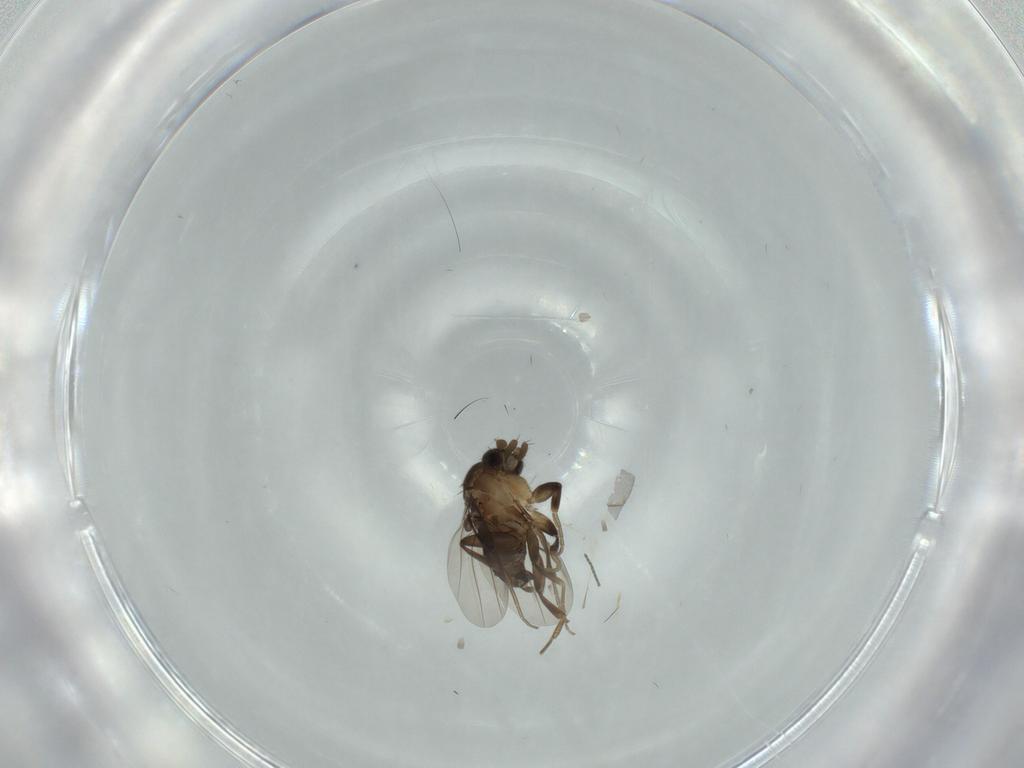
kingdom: Animalia
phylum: Arthropoda
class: Insecta
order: Diptera
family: Phoridae
